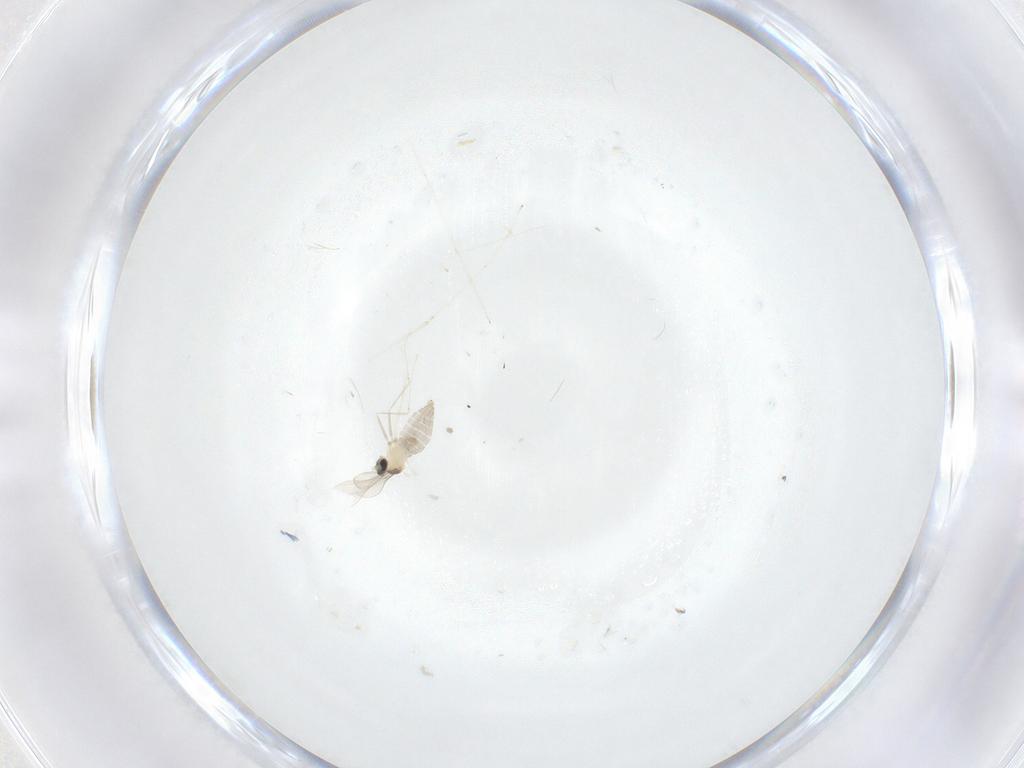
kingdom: Animalia
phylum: Arthropoda
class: Insecta
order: Diptera
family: Cecidomyiidae
